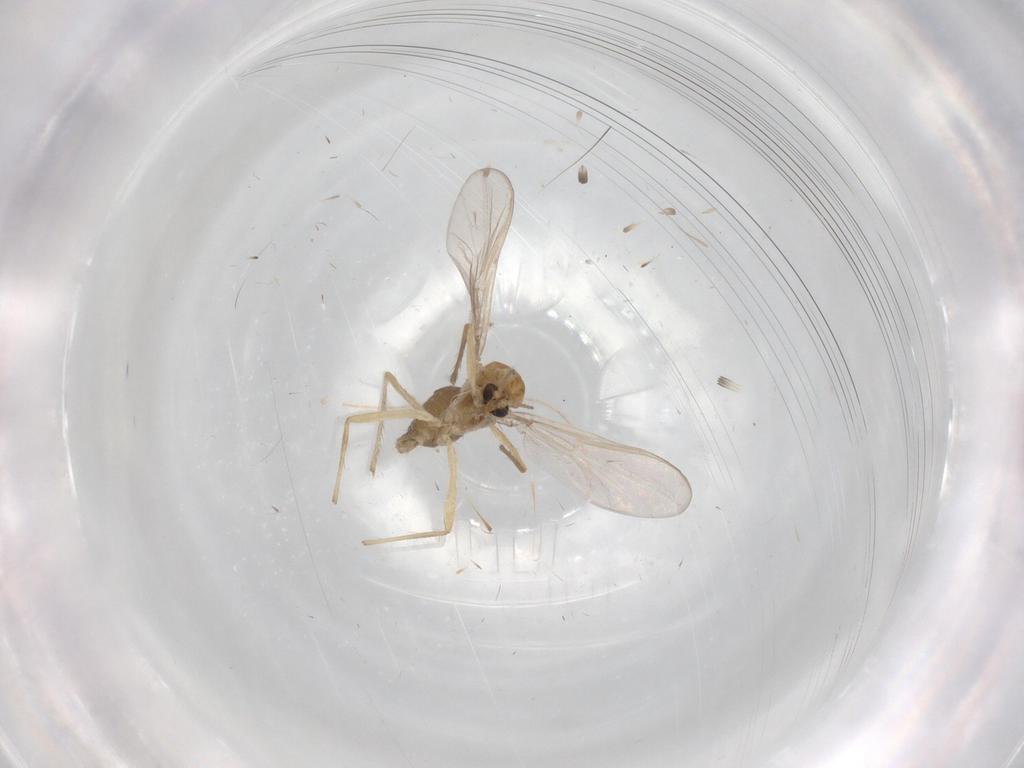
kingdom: Animalia
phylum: Arthropoda
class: Insecta
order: Diptera
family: Chironomidae
